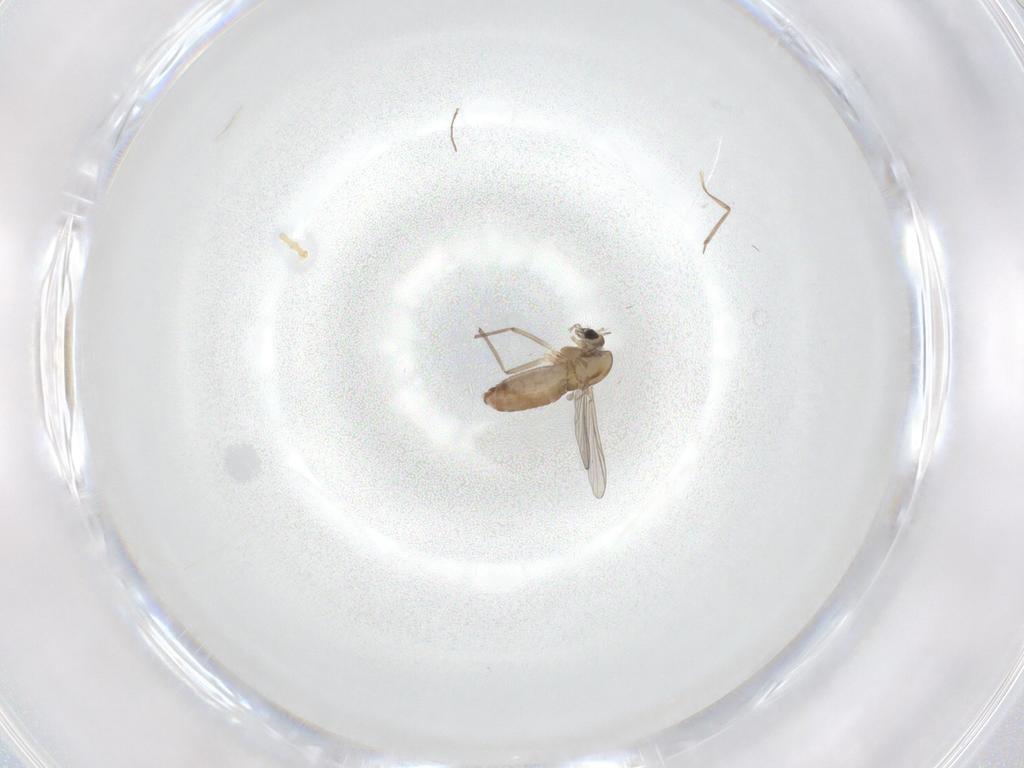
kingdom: Animalia
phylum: Arthropoda
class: Insecta
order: Diptera
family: Chironomidae
